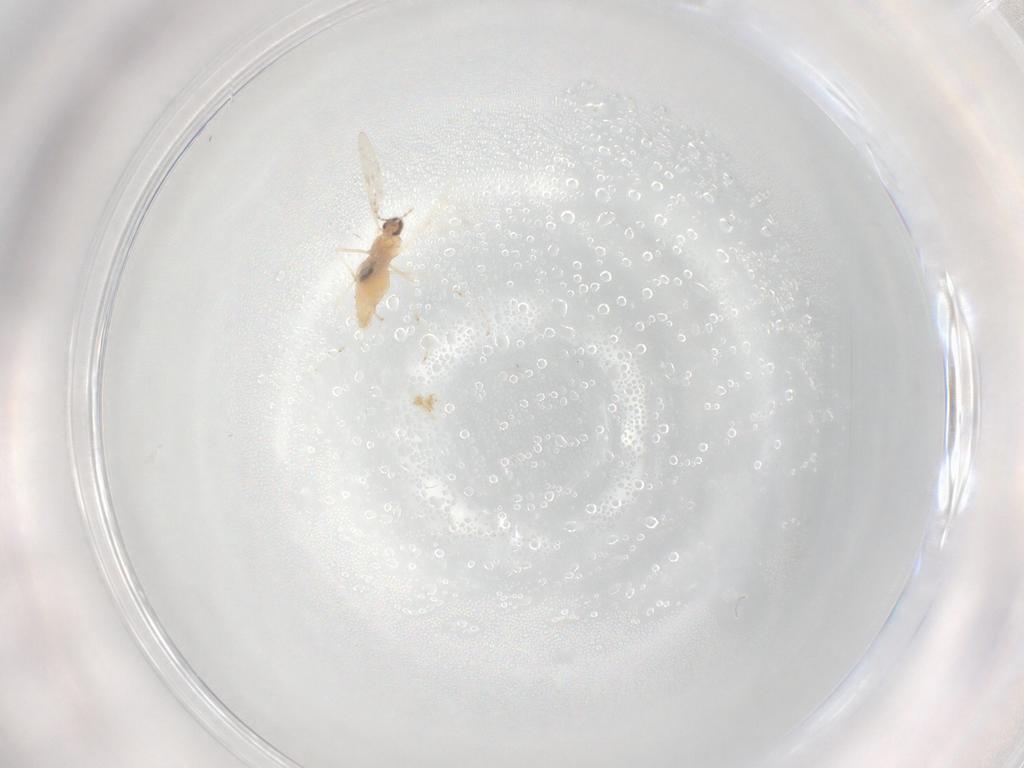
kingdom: Animalia
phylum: Arthropoda
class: Insecta
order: Diptera
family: Cecidomyiidae
